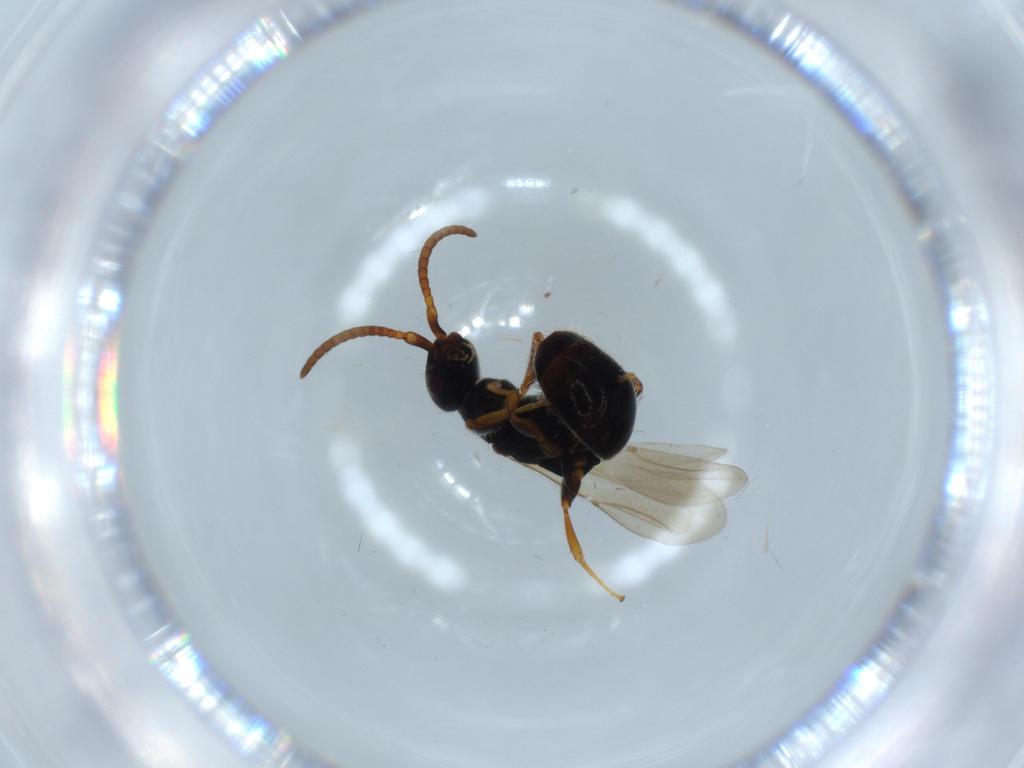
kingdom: Animalia
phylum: Arthropoda
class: Insecta
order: Hymenoptera
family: Bethylidae
